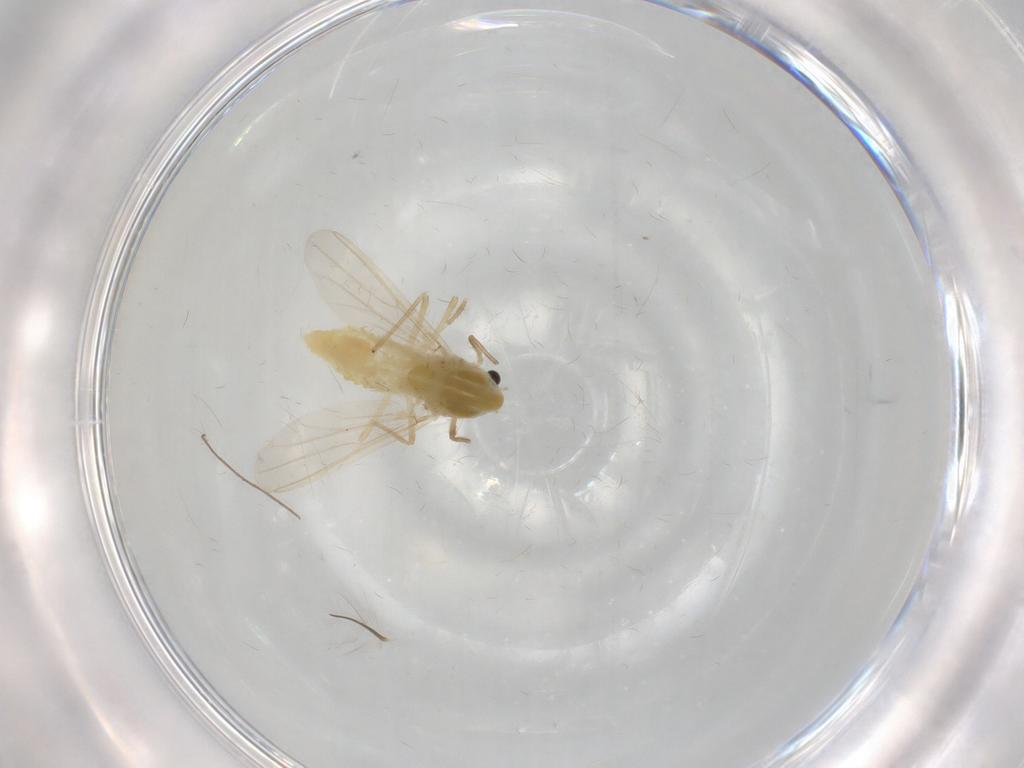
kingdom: Animalia
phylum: Arthropoda
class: Insecta
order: Diptera
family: Chironomidae
